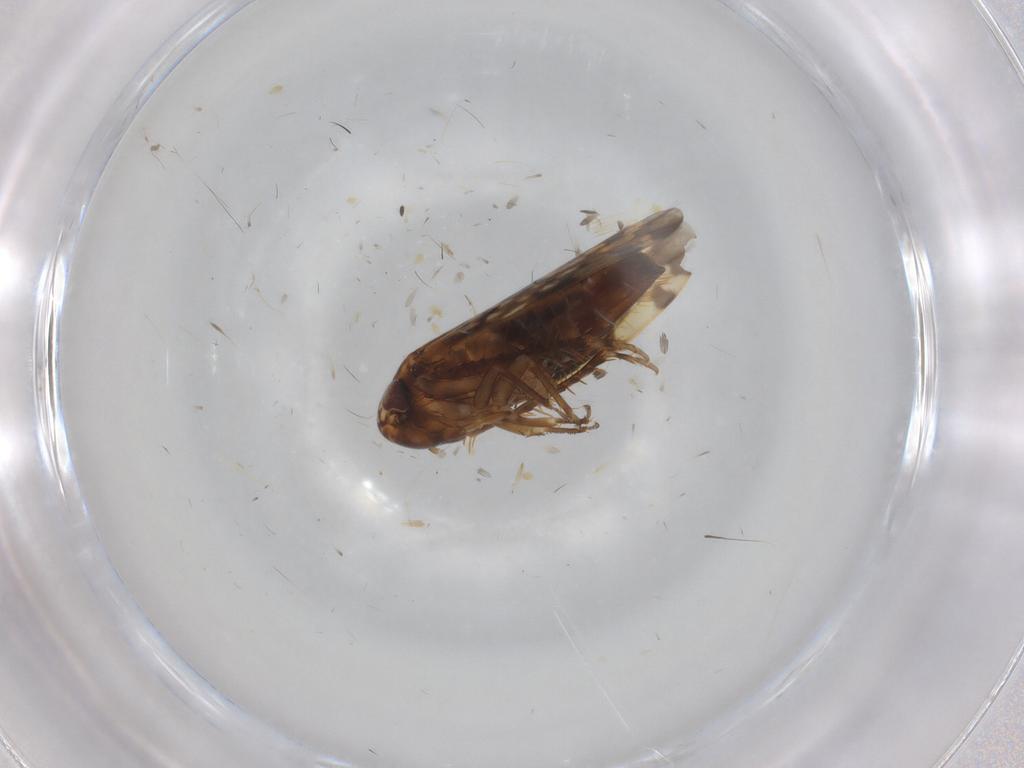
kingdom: Animalia
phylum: Arthropoda
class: Insecta
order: Hemiptera
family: Cicadellidae
